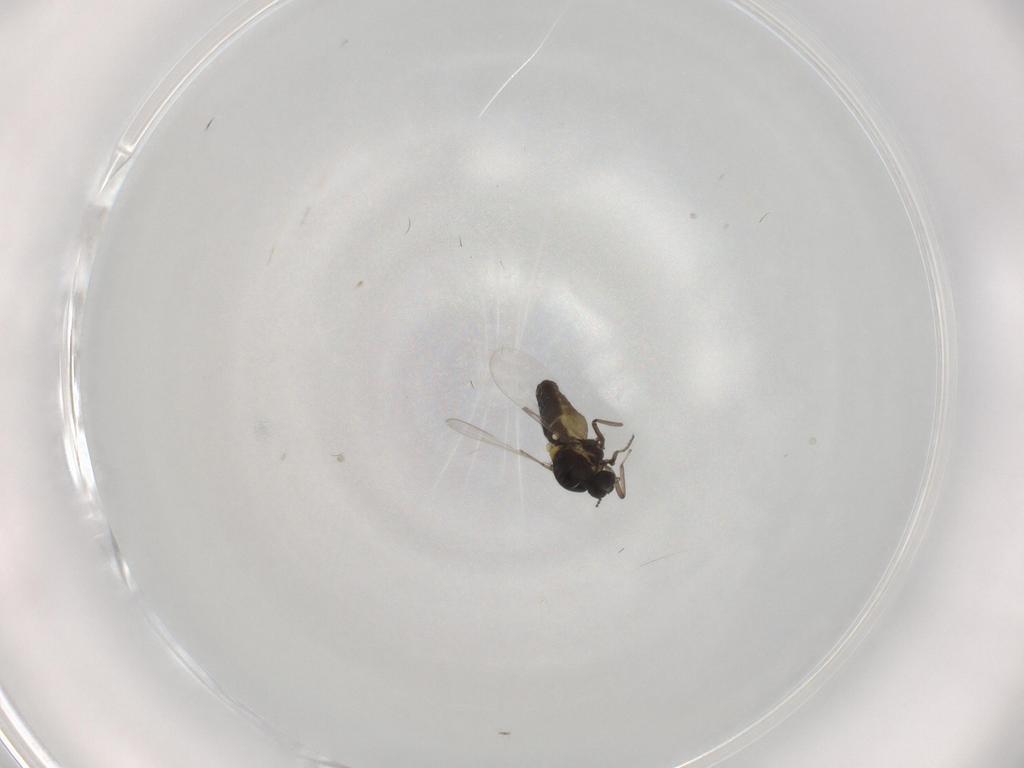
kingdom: Animalia
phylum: Arthropoda
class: Insecta
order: Diptera
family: Ceratopogonidae
